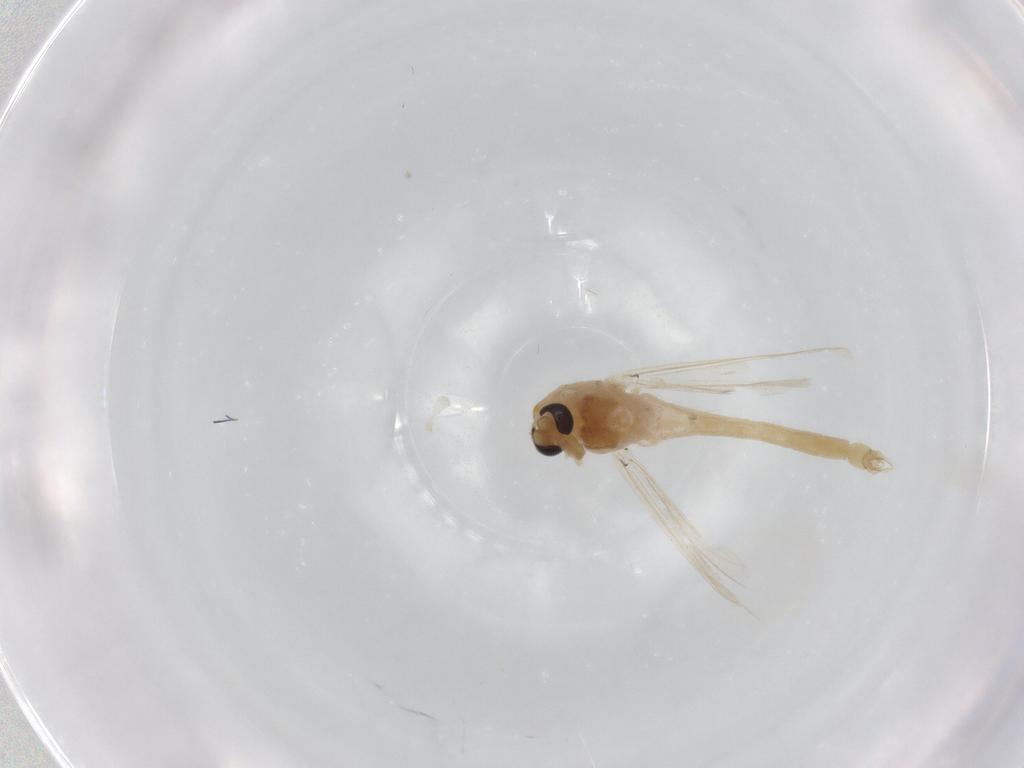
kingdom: Animalia
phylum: Arthropoda
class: Insecta
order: Diptera
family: Chironomidae
